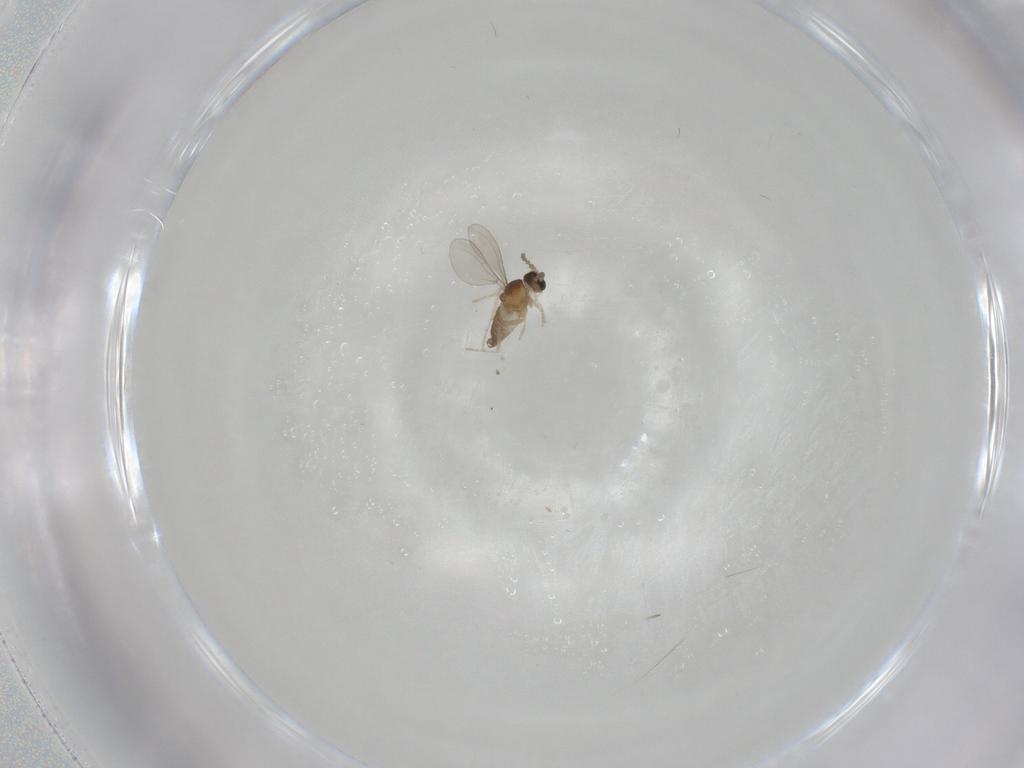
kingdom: Animalia
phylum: Arthropoda
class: Insecta
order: Diptera
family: Cecidomyiidae
